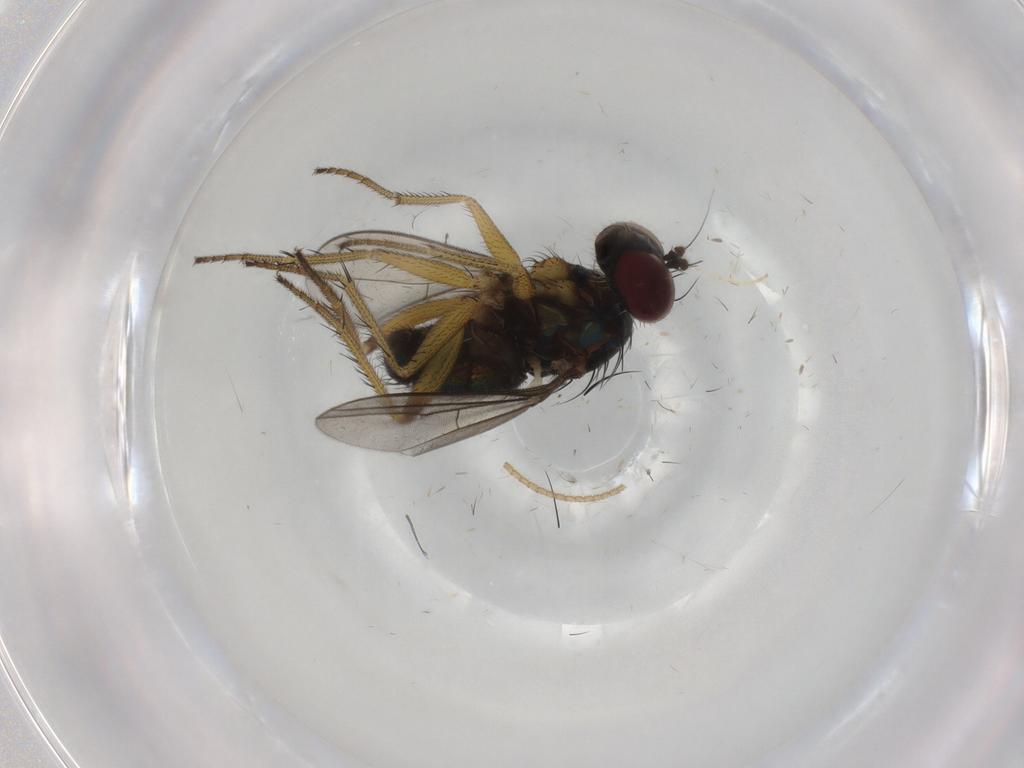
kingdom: Animalia
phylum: Arthropoda
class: Insecta
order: Diptera
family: Dolichopodidae
